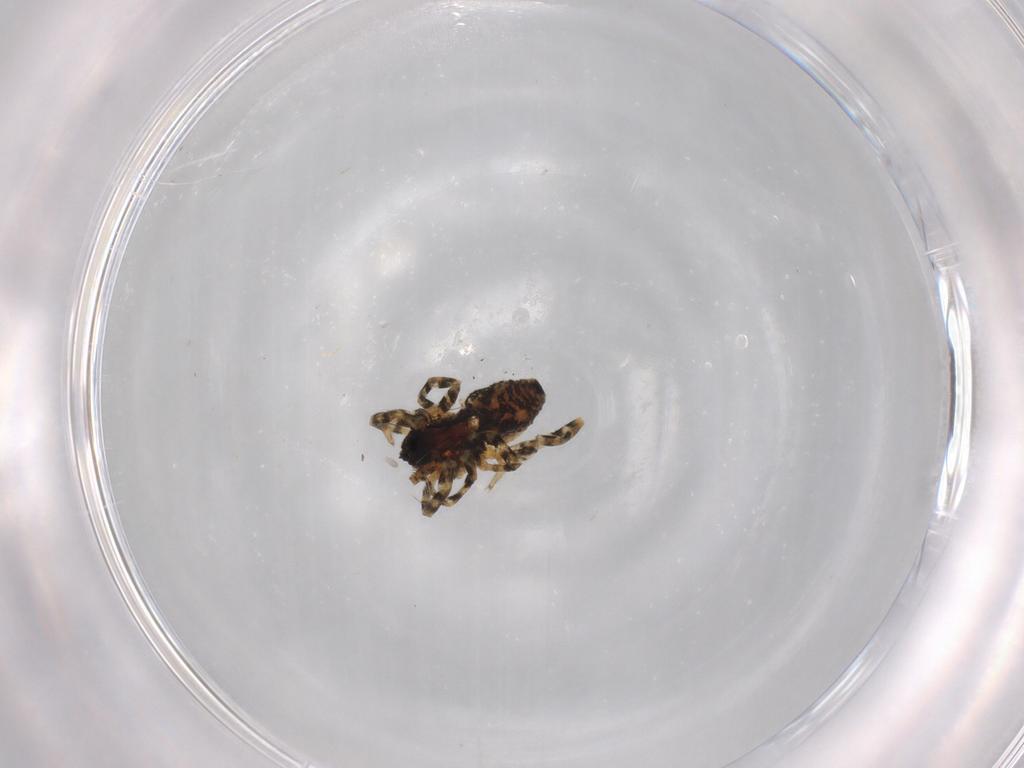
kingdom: Animalia
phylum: Arthropoda
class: Arachnida
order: Araneae
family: Lycosidae
